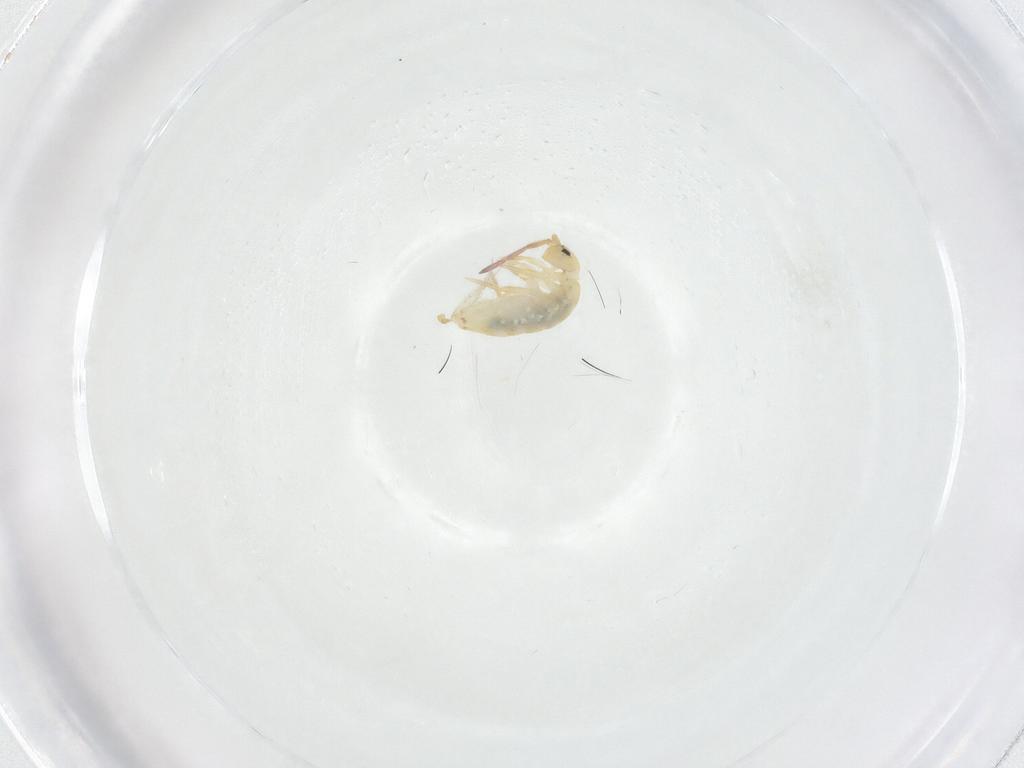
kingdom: Animalia
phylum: Arthropoda
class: Collembola
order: Entomobryomorpha
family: Entomobryidae
